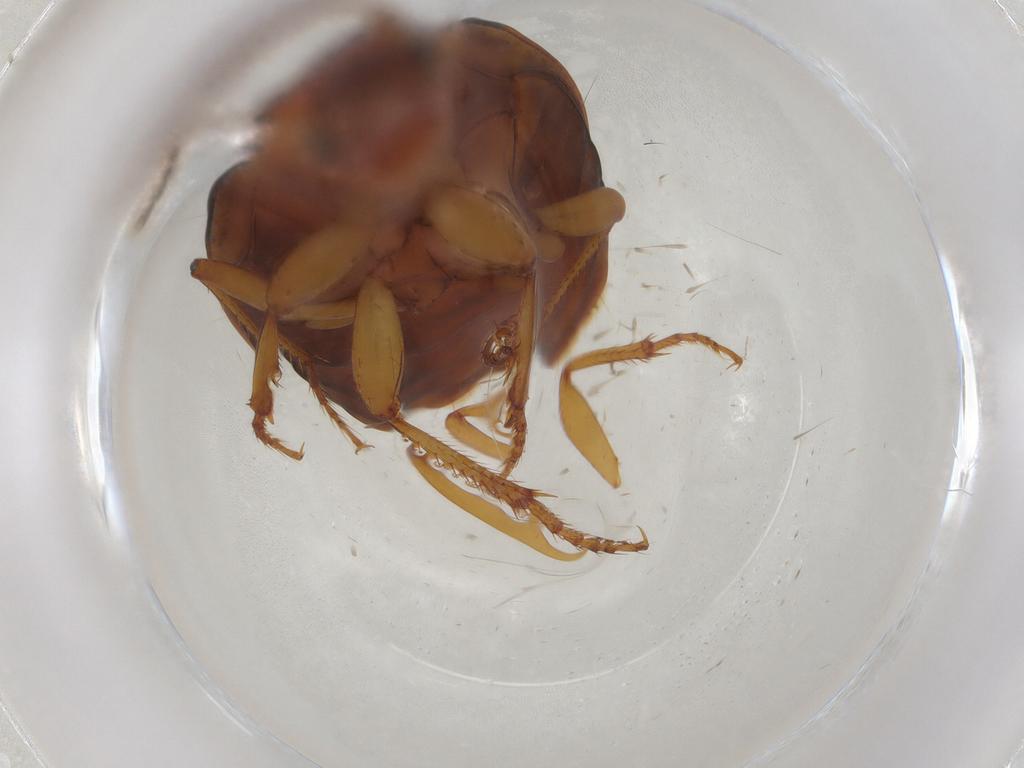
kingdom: Animalia
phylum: Arthropoda
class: Insecta
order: Coleoptera
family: Carabidae
